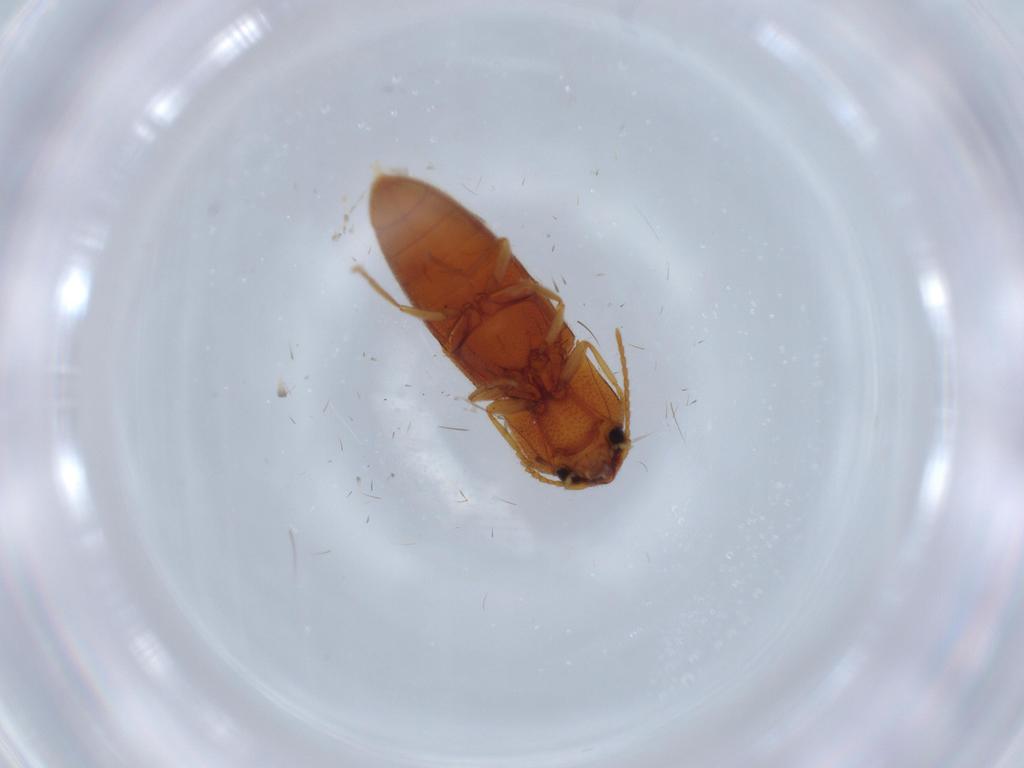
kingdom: Animalia
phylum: Arthropoda
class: Insecta
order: Coleoptera
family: Elateridae
